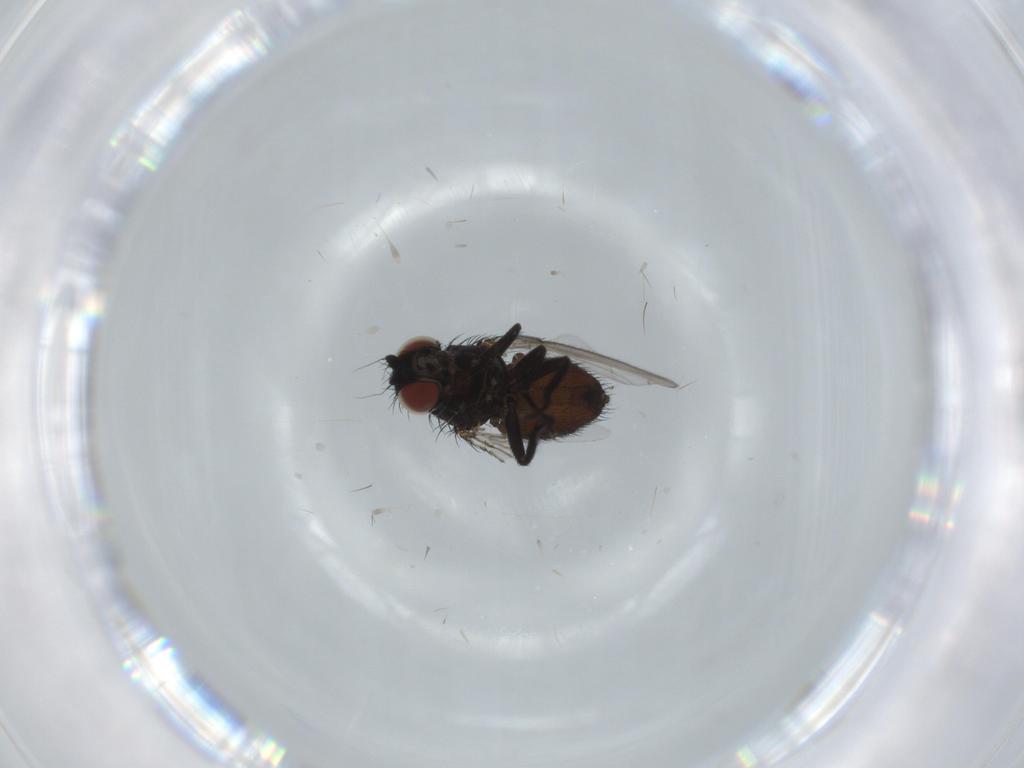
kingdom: Animalia
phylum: Arthropoda
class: Insecta
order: Diptera
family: Milichiidae
